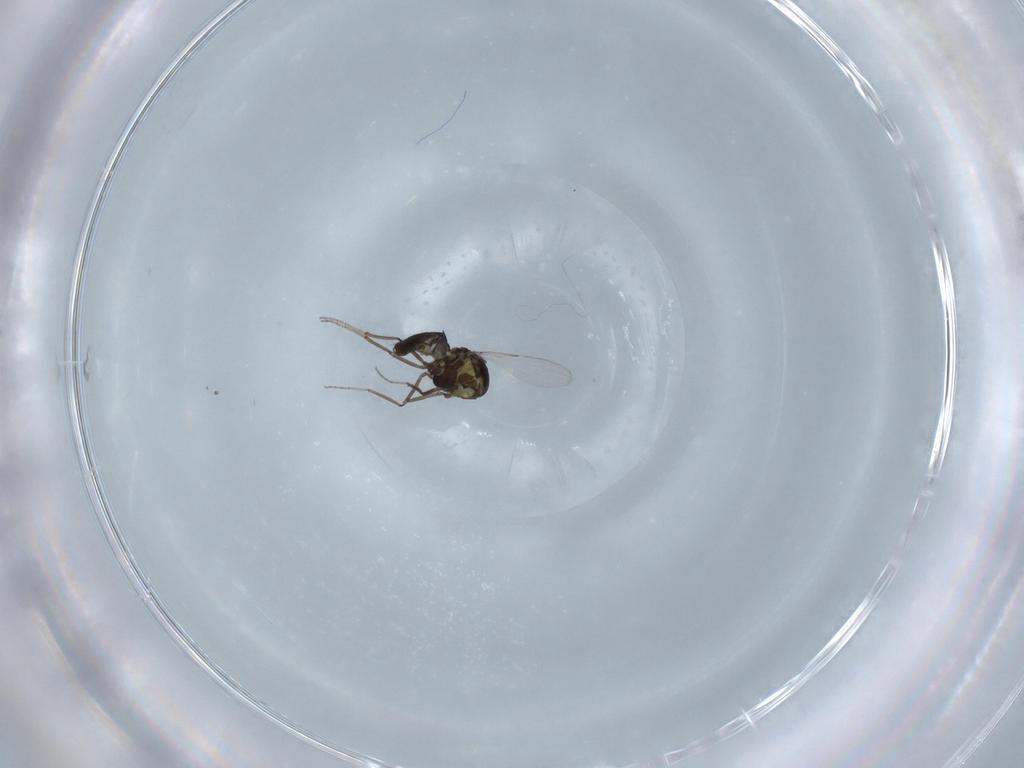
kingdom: Animalia
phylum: Arthropoda
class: Insecta
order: Diptera
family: Ceratopogonidae
